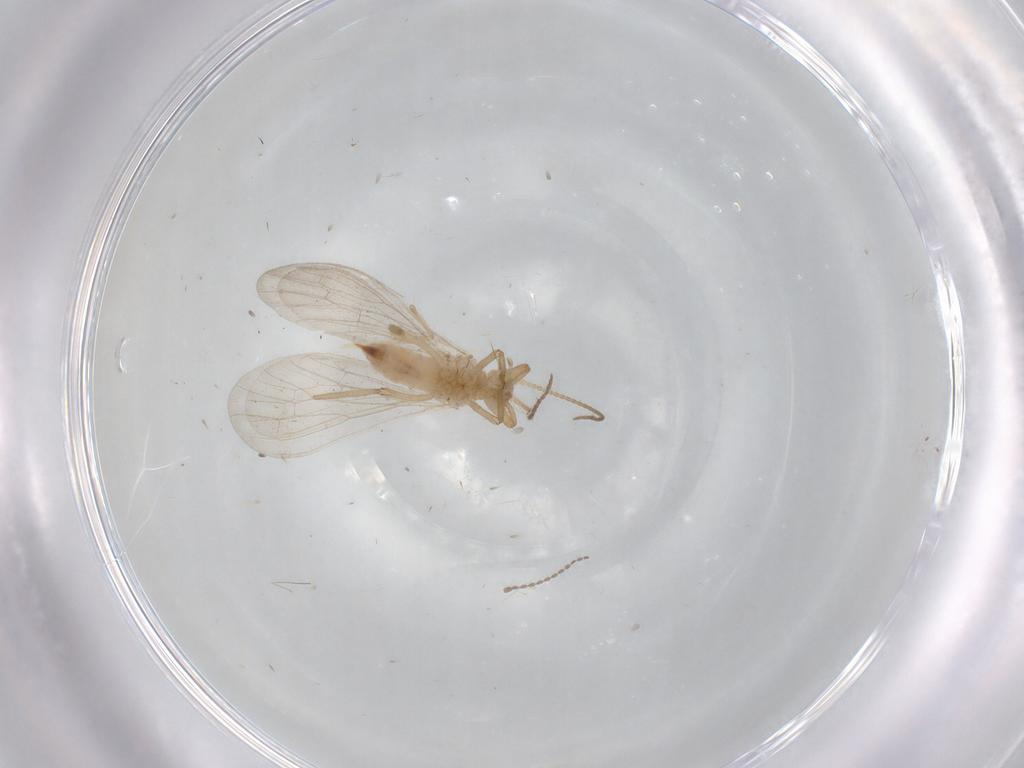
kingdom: Animalia
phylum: Arthropoda
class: Insecta
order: Neuroptera
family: Coniopterygidae
